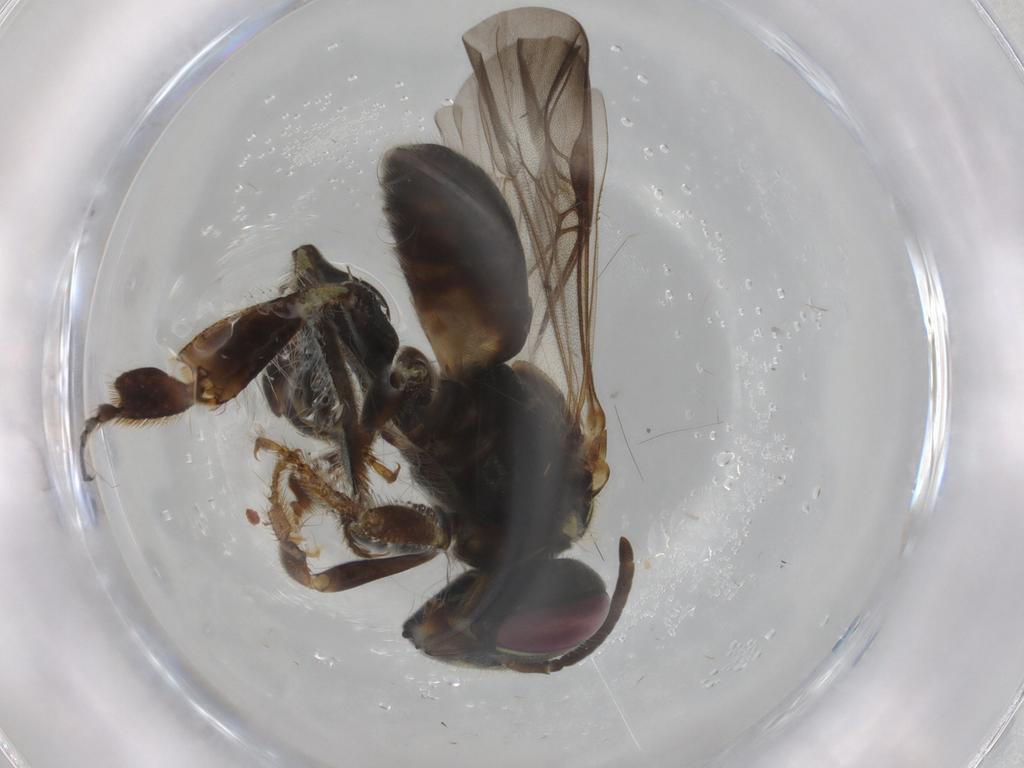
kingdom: Animalia
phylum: Arthropoda
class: Insecta
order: Hymenoptera
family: Apidae
